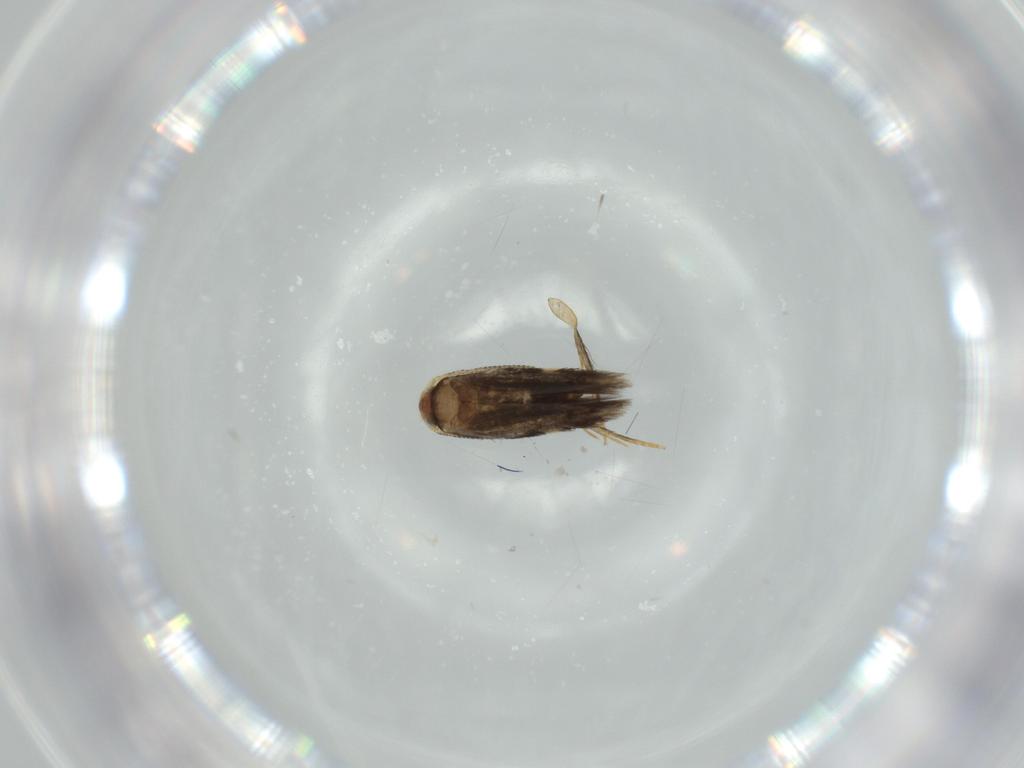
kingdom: Animalia
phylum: Arthropoda
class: Insecta
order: Lepidoptera
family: Nepticulidae
